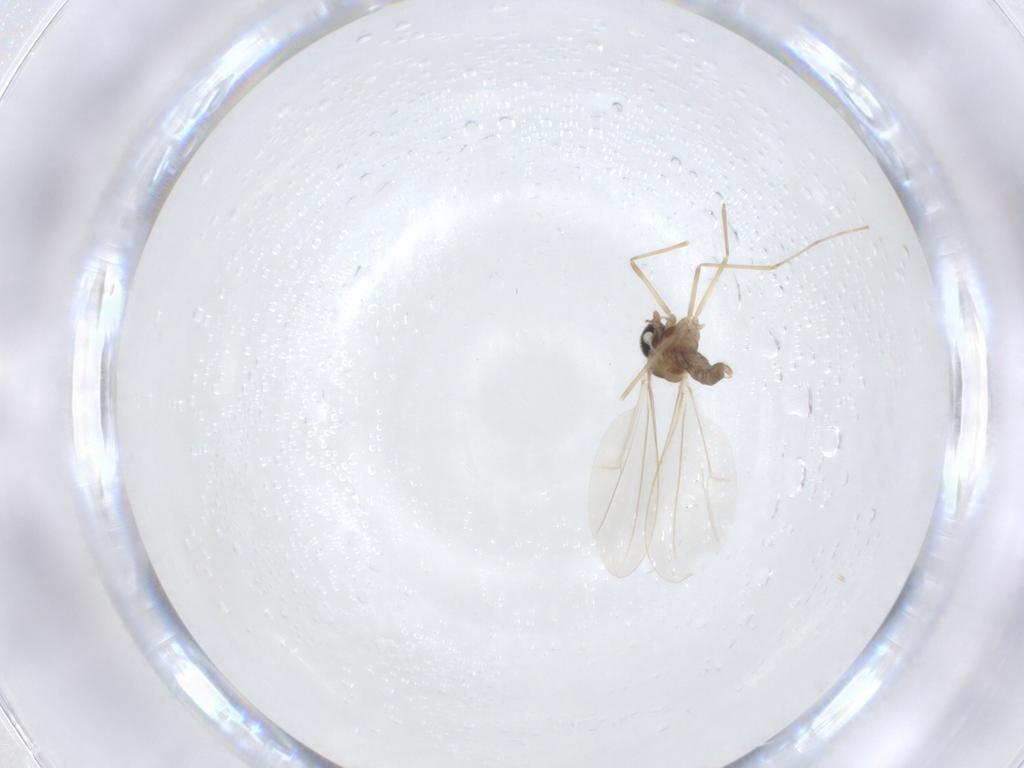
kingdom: Animalia
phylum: Arthropoda
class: Insecta
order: Diptera
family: Cecidomyiidae
